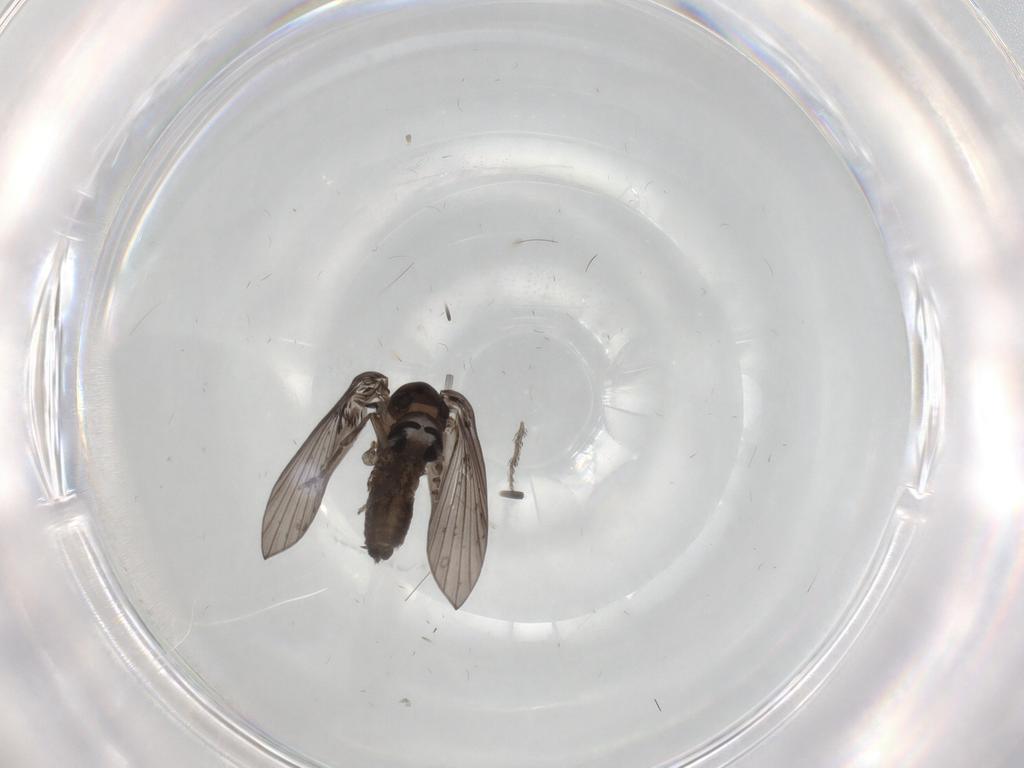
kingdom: Animalia
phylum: Arthropoda
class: Insecta
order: Diptera
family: Psychodidae
